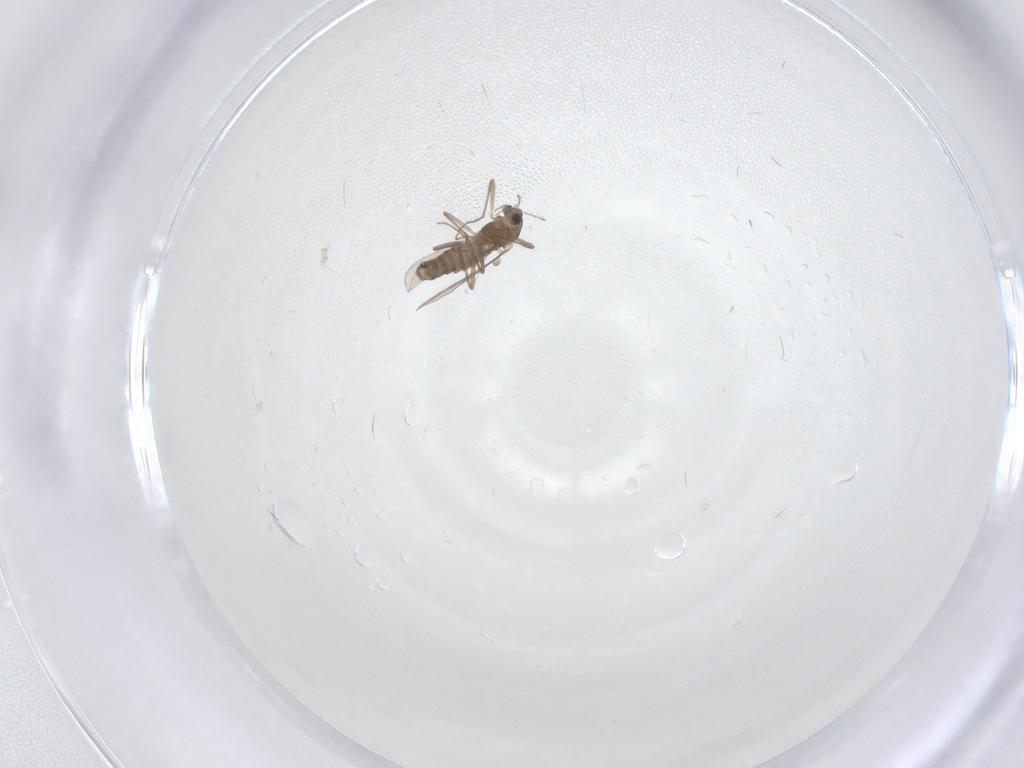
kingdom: Animalia
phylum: Arthropoda
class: Insecta
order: Diptera
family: Chironomidae
